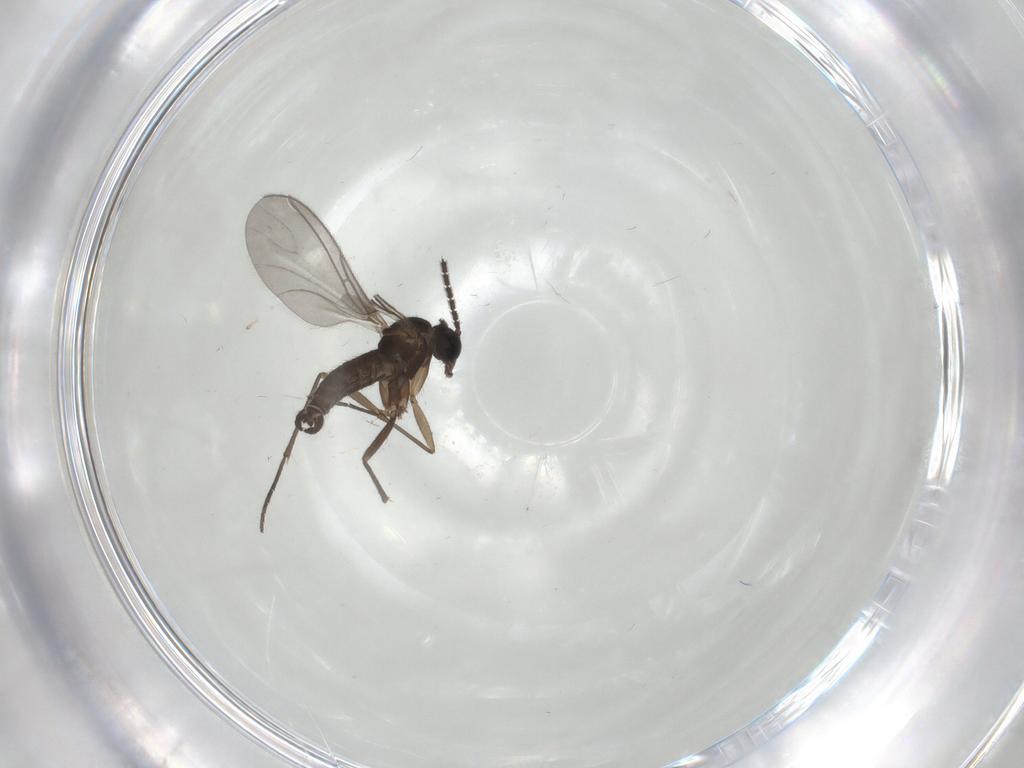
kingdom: Animalia
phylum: Arthropoda
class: Insecta
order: Diptera
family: Sciaridae
